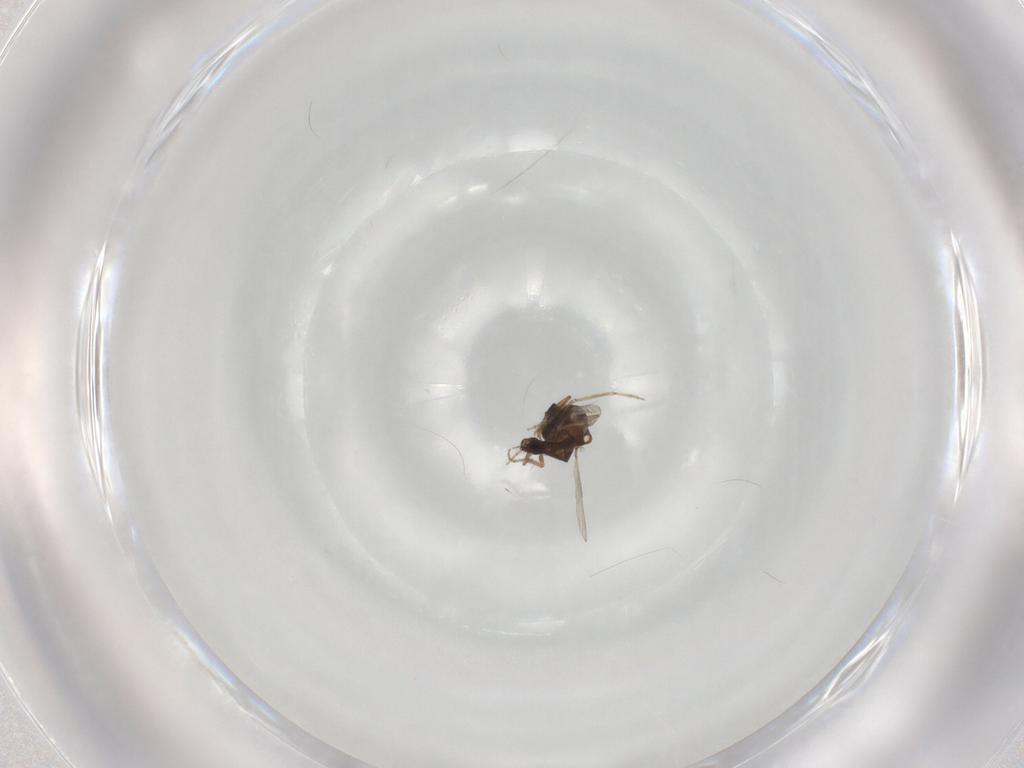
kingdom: Animalia
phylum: Arthropoda
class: Insecta
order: Diptera
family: Ceratopogonidae
